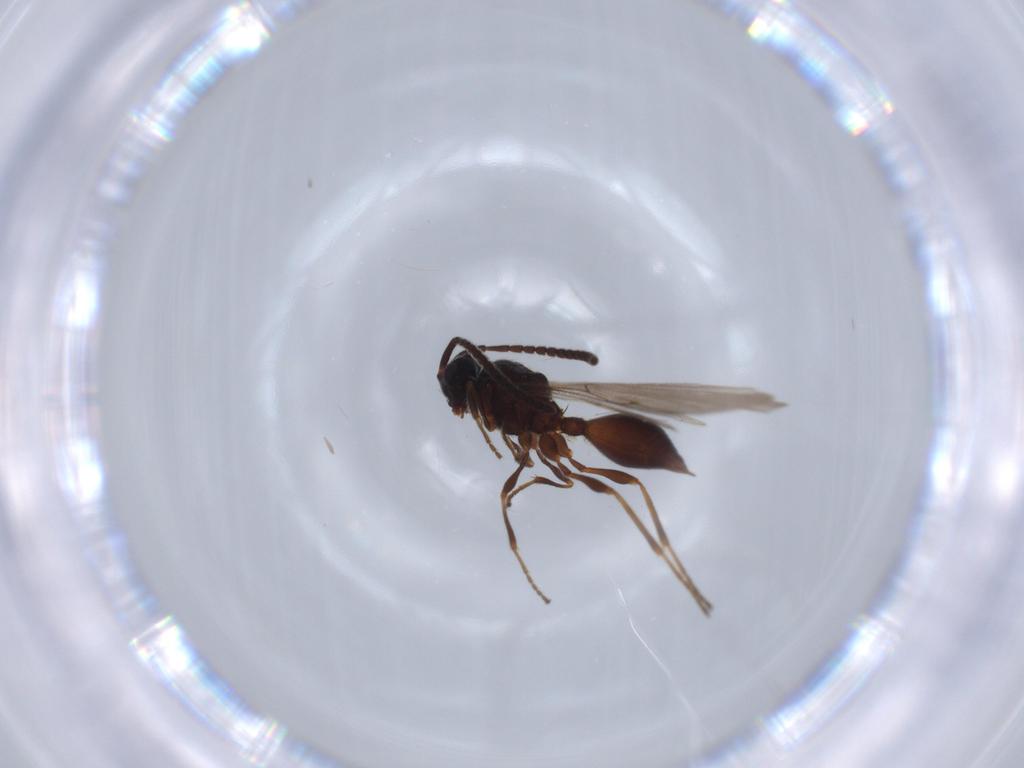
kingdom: Animalia
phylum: Arthropoda
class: Insecta
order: Hymenoptera
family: Diapriidae
